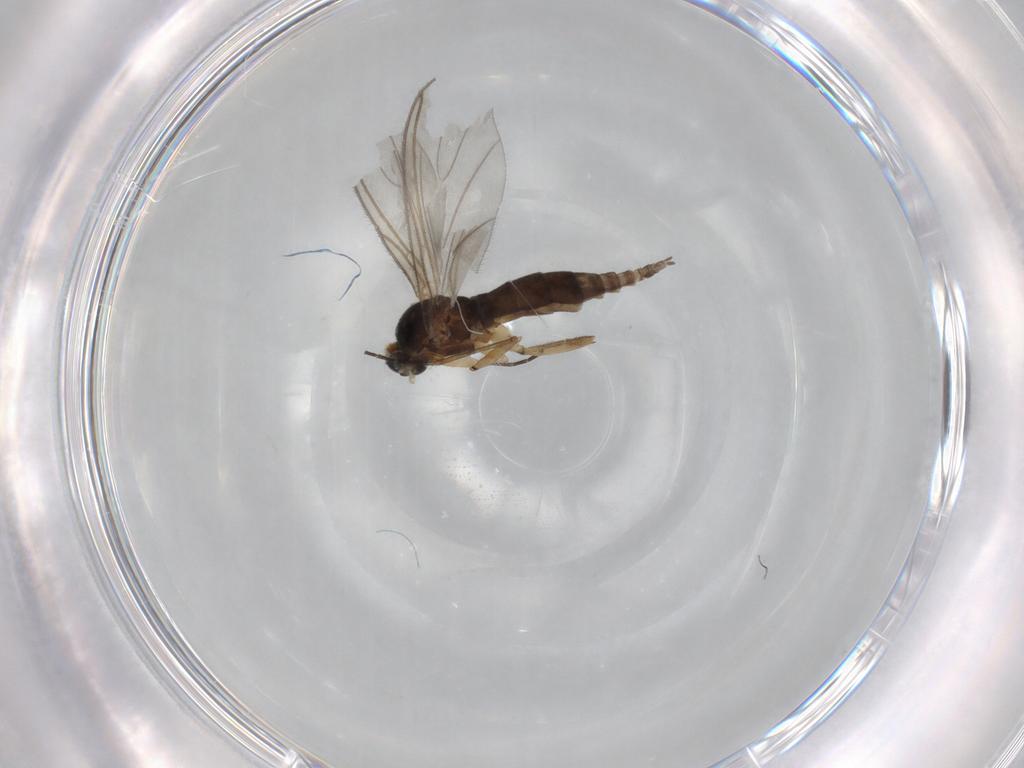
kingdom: Animalia
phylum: Arthropoda
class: Insecta
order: Diptera
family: Sciaridae
